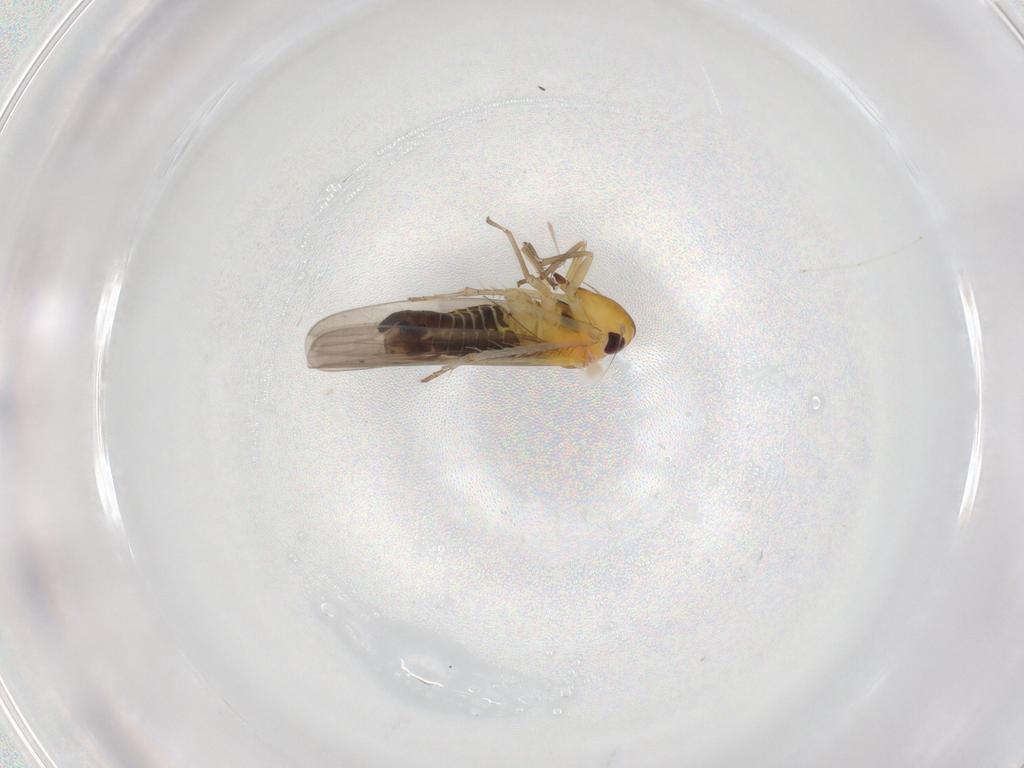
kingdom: Animalia
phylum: Arthropoda
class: Insecta
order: Hemiptera
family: Cicadellidae
